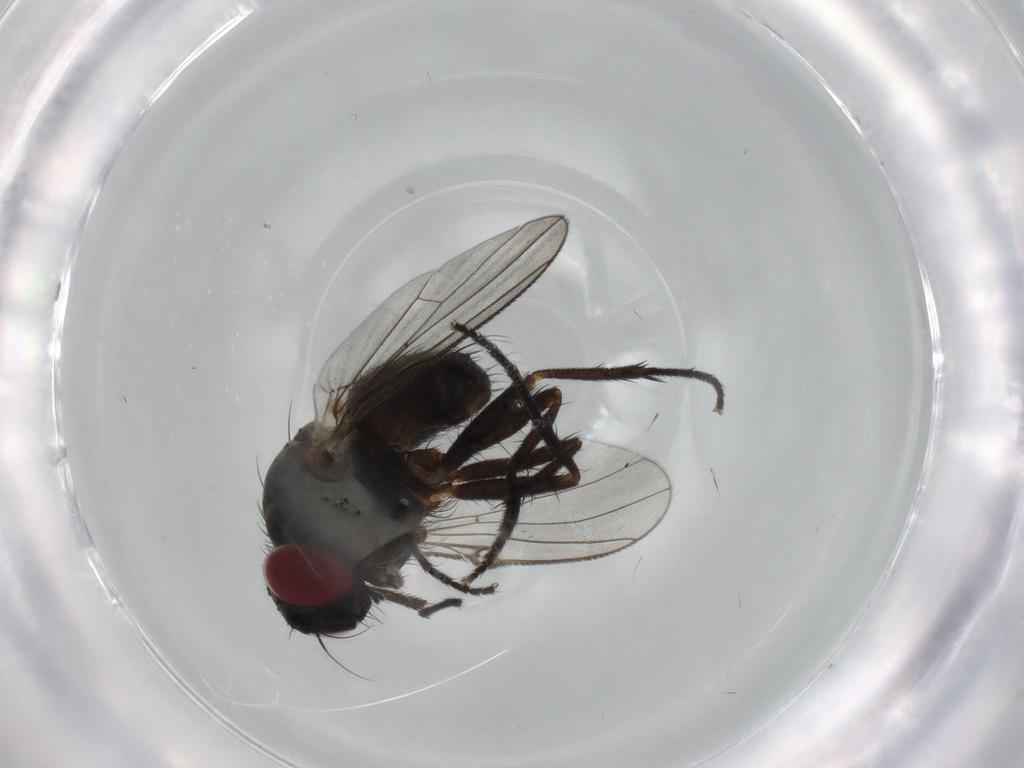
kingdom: Animalia
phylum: Arthropoda
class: Insecta
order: Diptera
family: Muscidae
